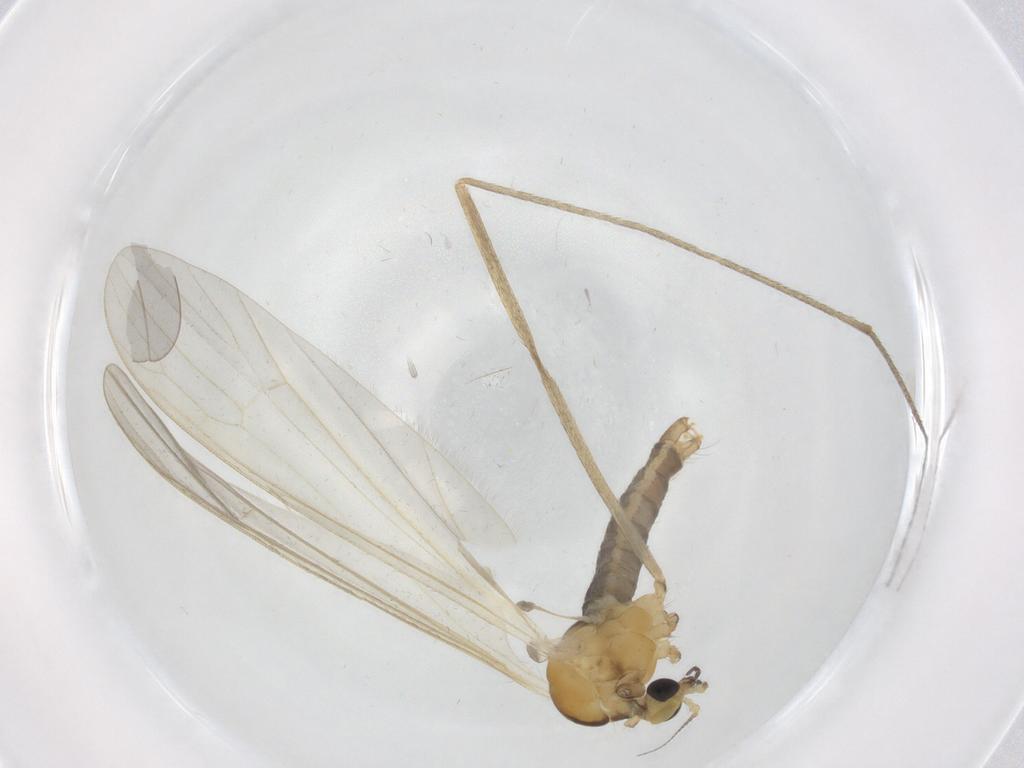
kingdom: Animalia
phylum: Arthropoda
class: Insecta
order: Diptera
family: Limoniidae
